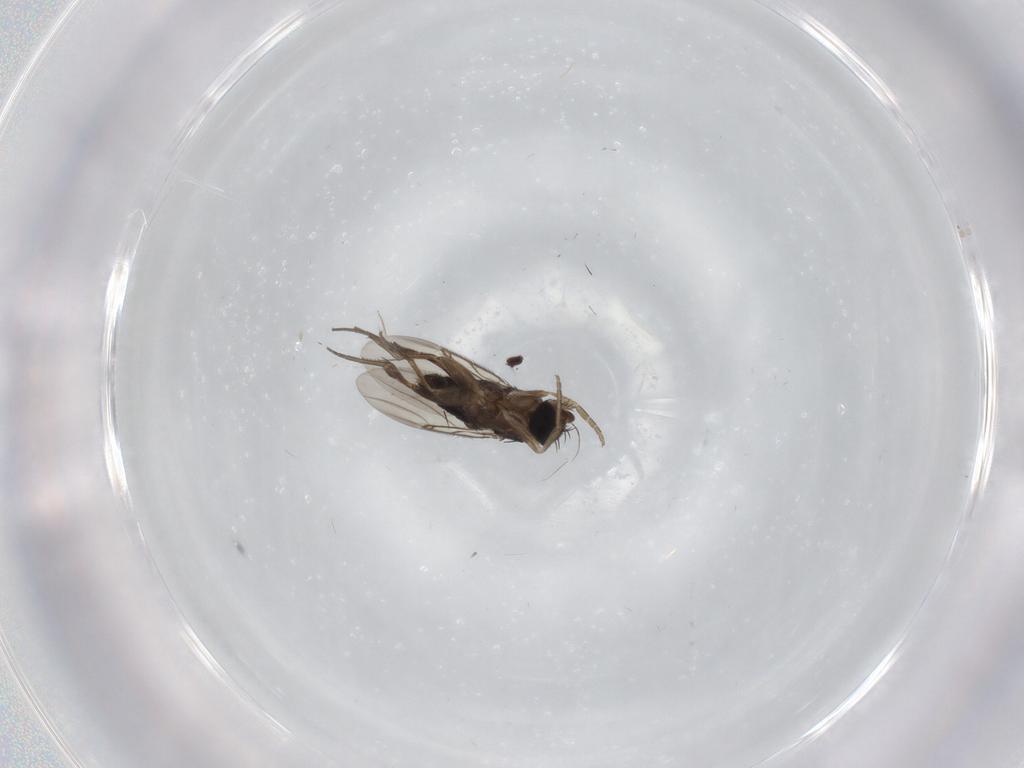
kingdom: Animalia
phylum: Arthropoda
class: Insecta
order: Diptera
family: Phoridae
